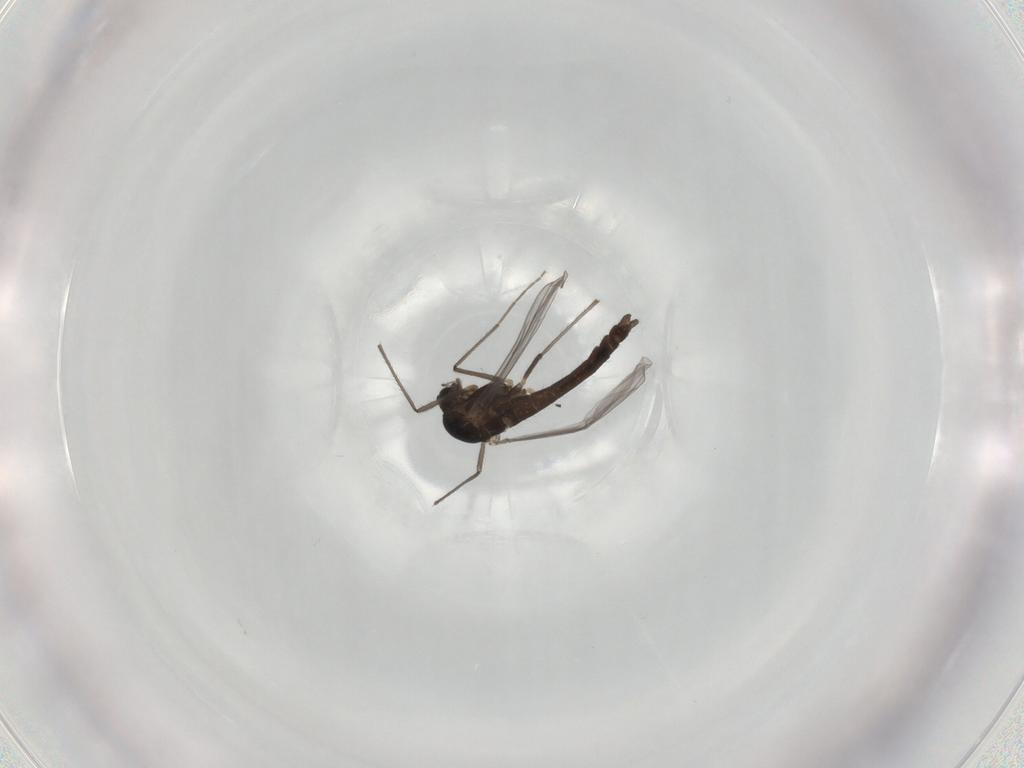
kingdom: Animalia
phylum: Arthropoda
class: Insecta
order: Diptera
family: Chironomidae
